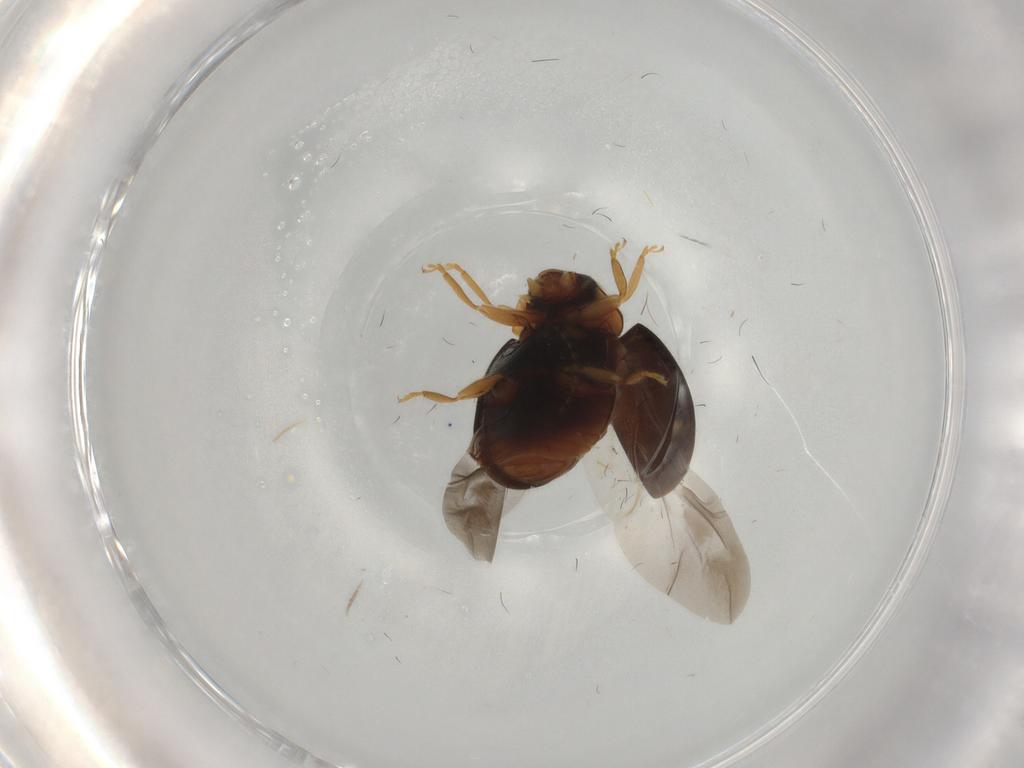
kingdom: Animalia
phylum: Arthropoda
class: Insecta
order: Coleoptera
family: Coccinellidae
